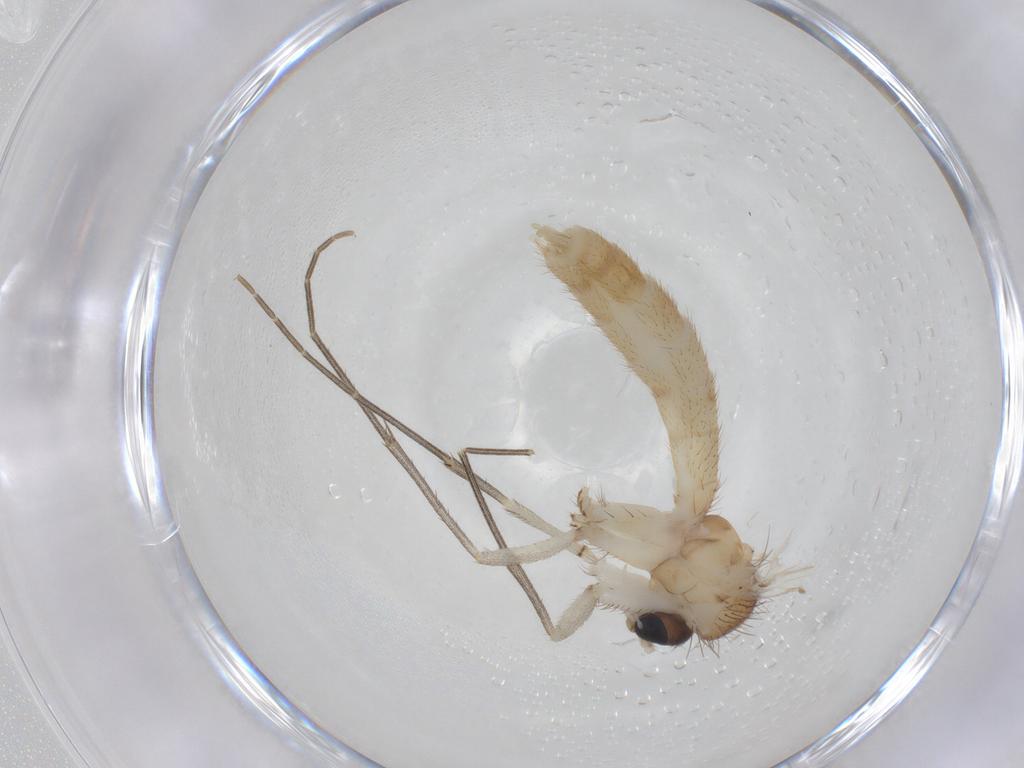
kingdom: Animalia
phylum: Arthropoda
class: Insecta
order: Diptera
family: Mycetophilidae
